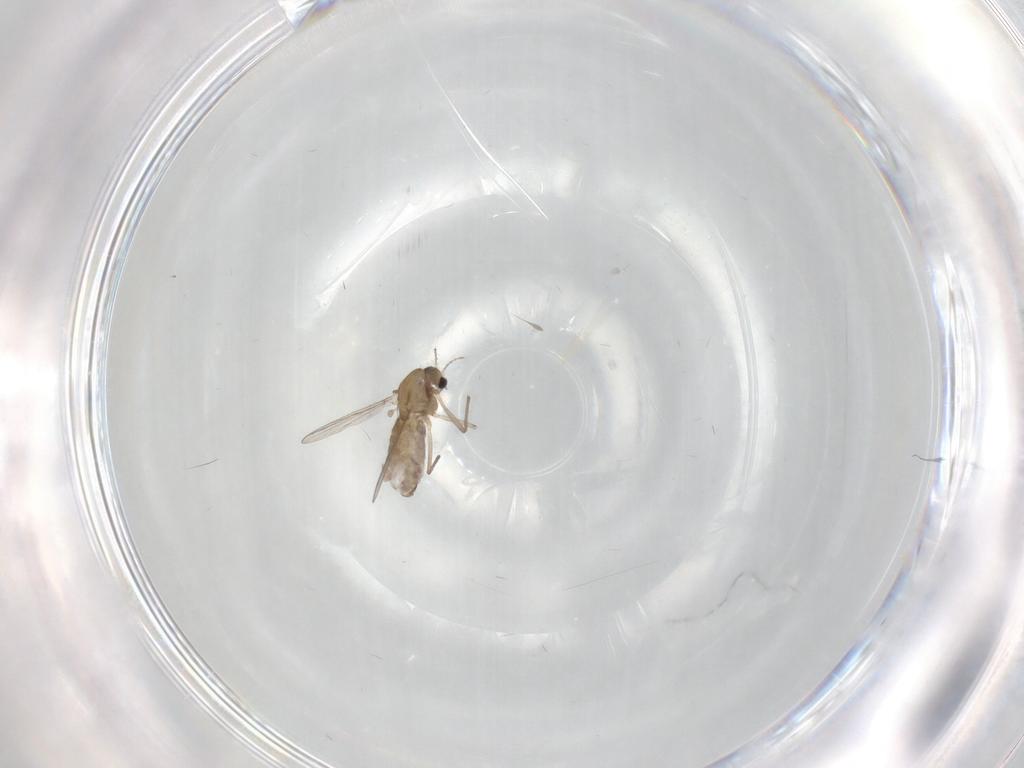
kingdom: Animalia
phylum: Arthropoda
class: Insecta
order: Diptera
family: Chironomidae
